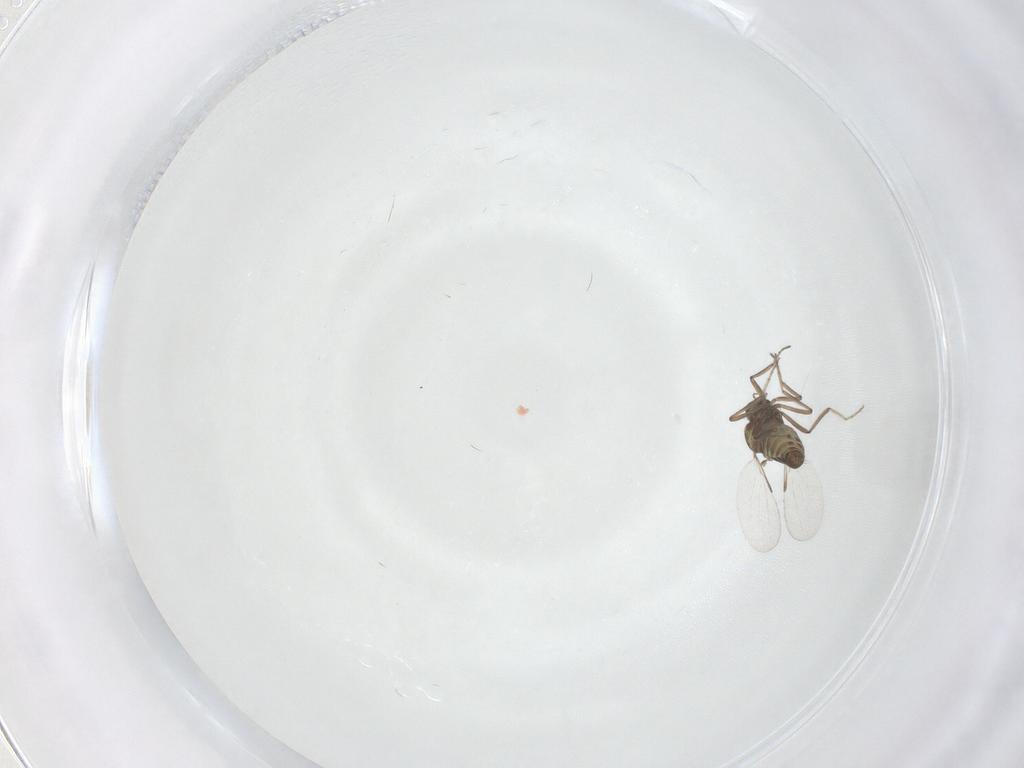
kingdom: Animalia
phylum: Arthropoda
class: Insecta
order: Diptera
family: Ceratopogonidae
